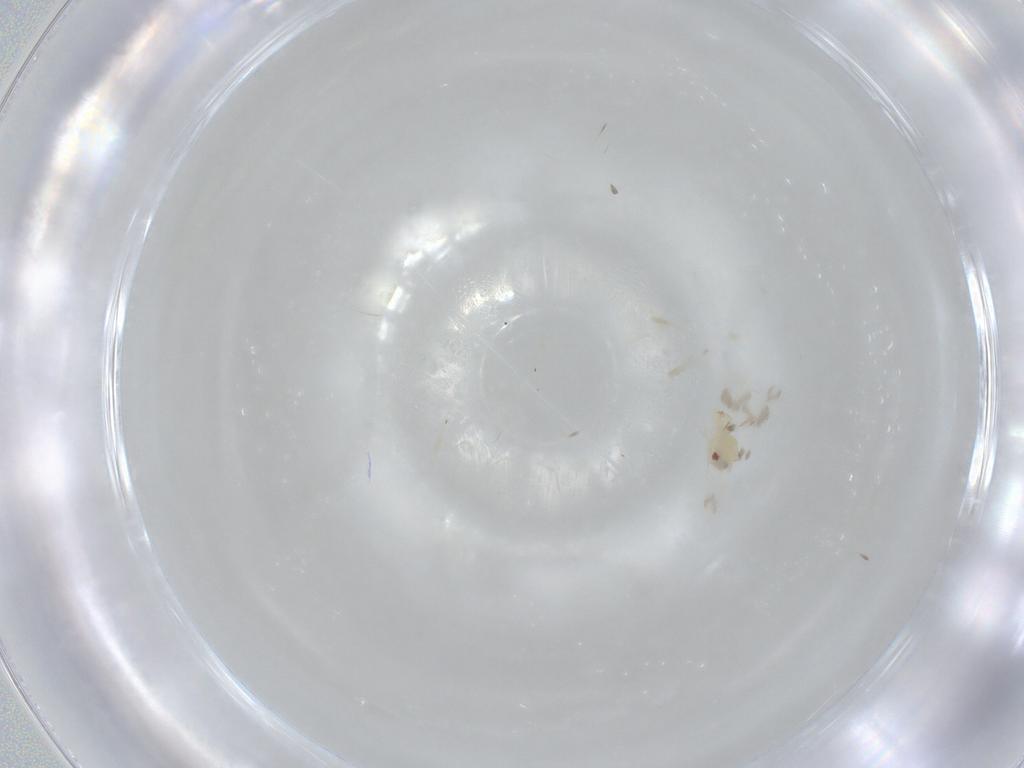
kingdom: Animalia
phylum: Arthropoda
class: Insecta
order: Hemiptera
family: Aleyrodidae
